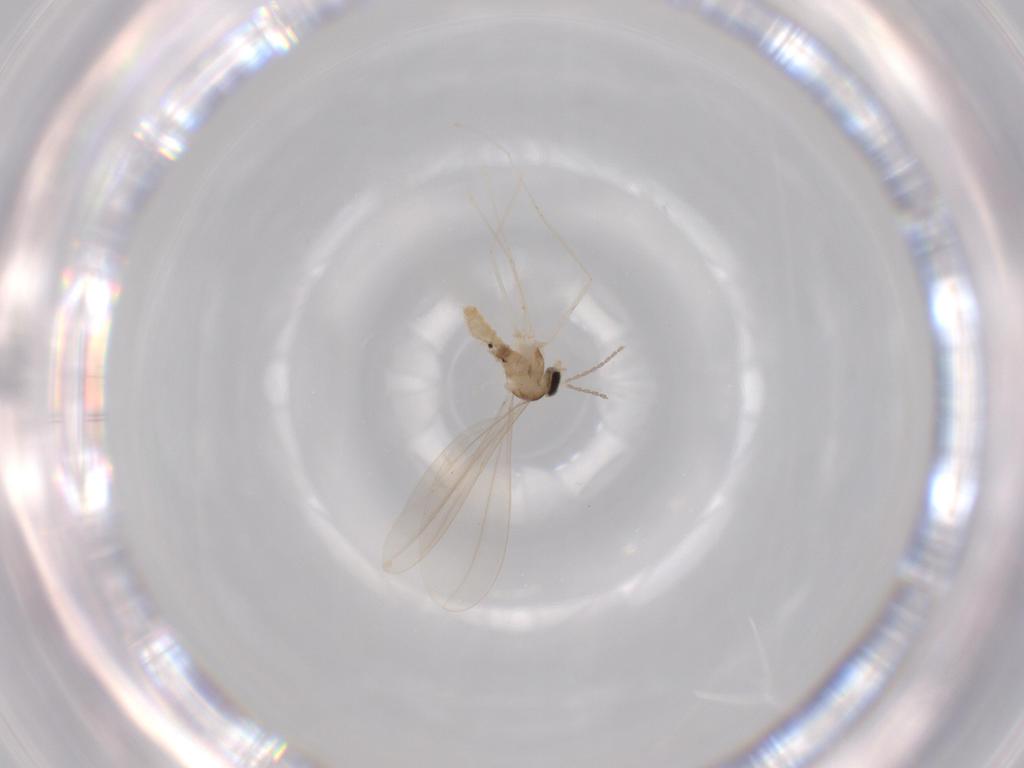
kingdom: Animalia
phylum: Arthropoda
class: Insecta
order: Diptera
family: Cecidomyiidae
